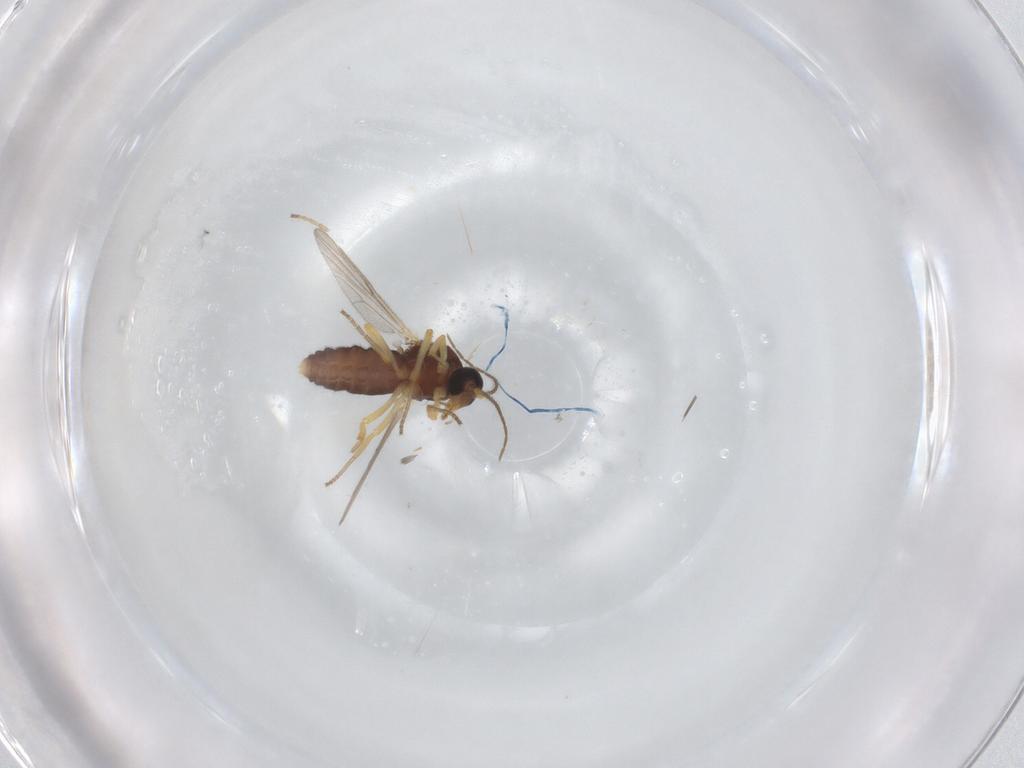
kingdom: Animalia
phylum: Arthropoda
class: Insecta
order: Diptera
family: Ceratopogonidae
